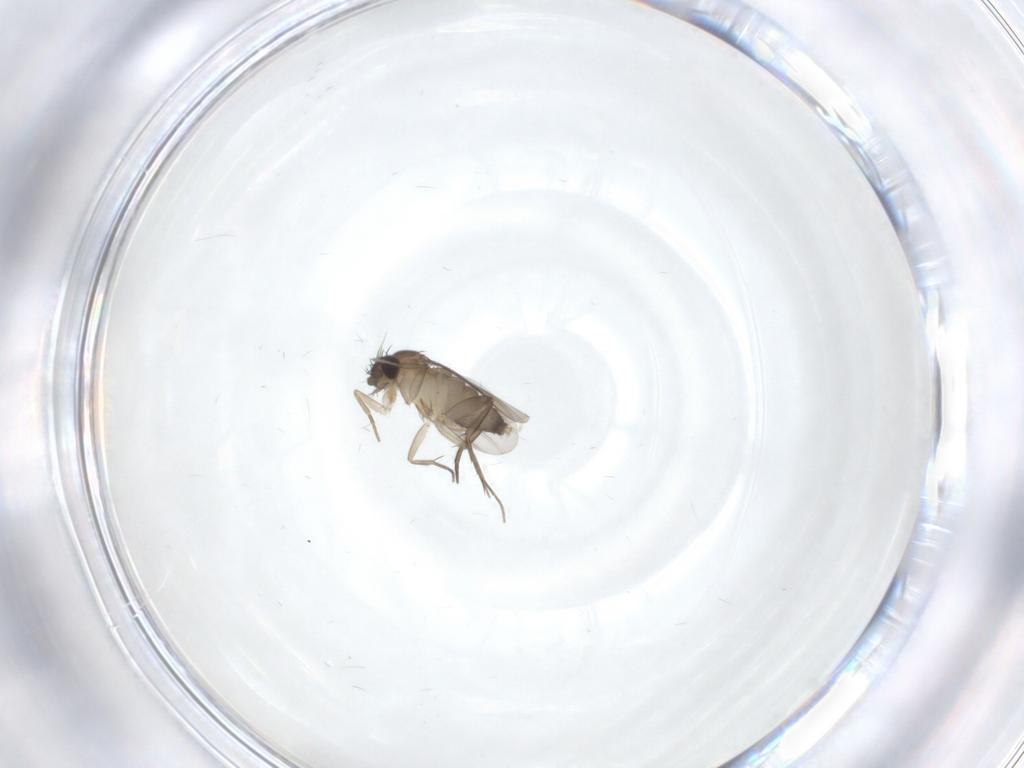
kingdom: Animalia
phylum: Arthropoda
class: Insecta
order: Diptera
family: Phoridae
